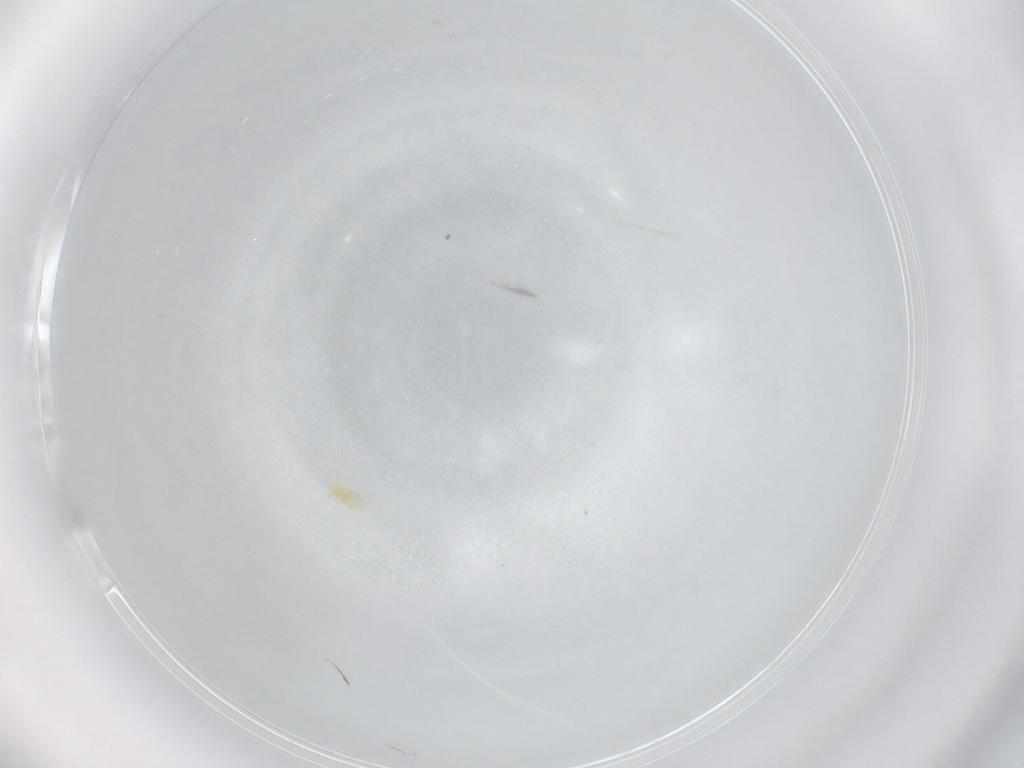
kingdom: Animalia
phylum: Arthropoda
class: Arachnida
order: Trombidiformes
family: Eupodidae
